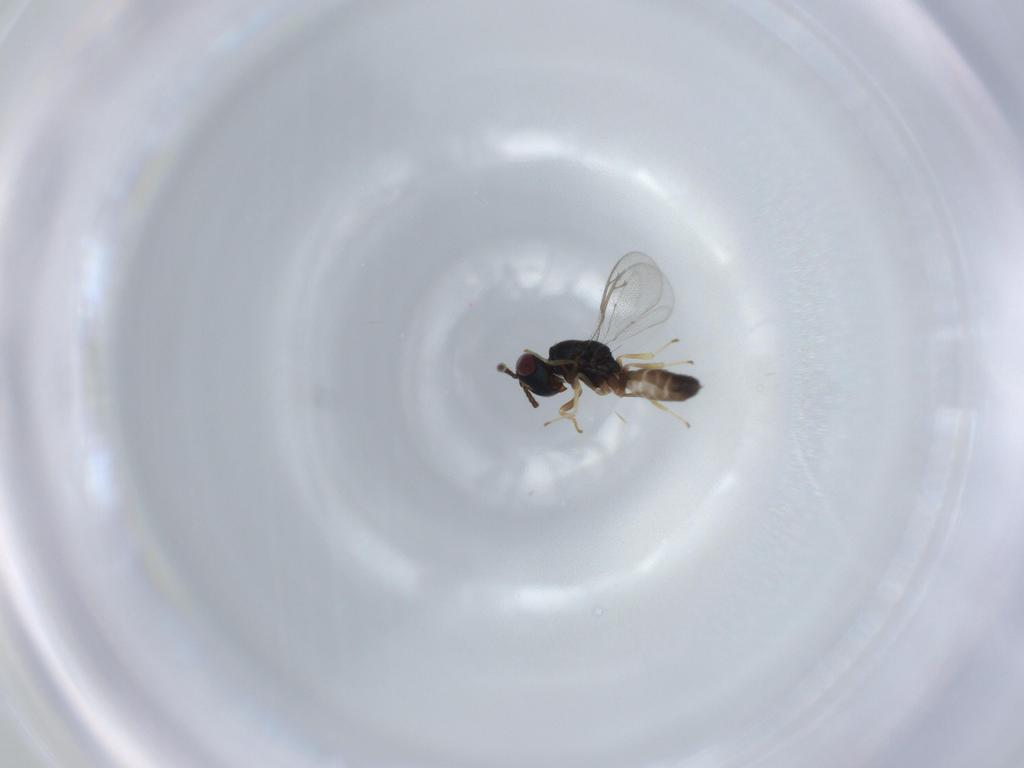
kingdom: Animalia
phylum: Arthropoda
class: Insecta
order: Hymenoptera
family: Pteromalidae
